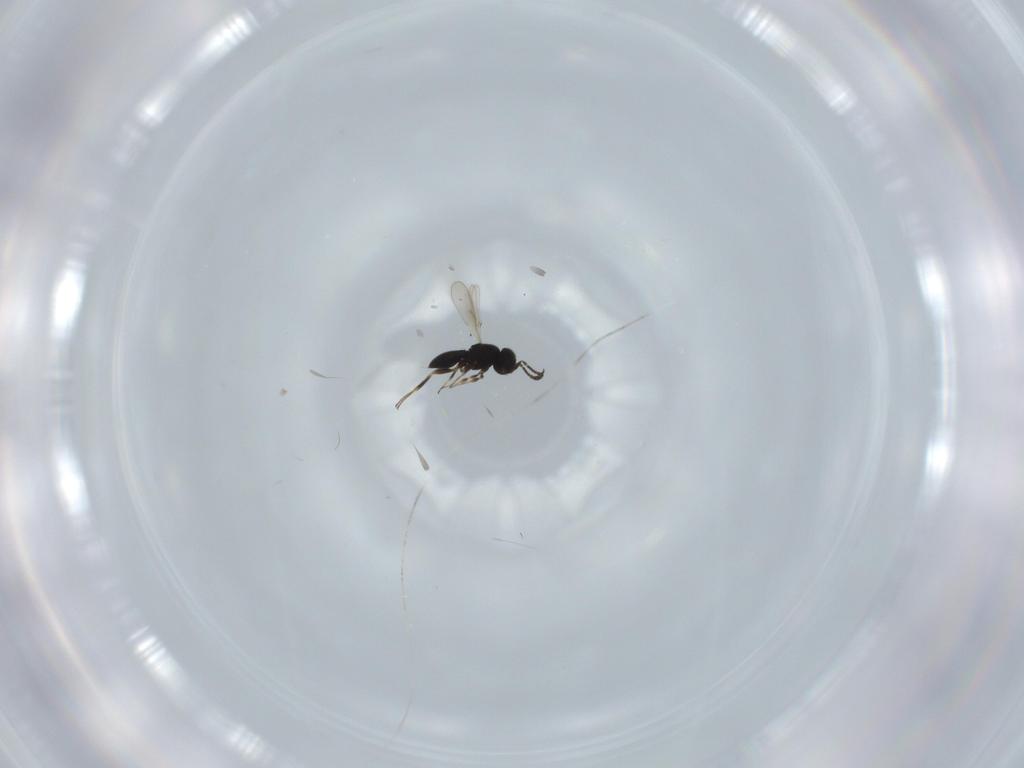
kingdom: Animalia
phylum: Arthropoda
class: Insecta
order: Hymenoptera
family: Scelionidae
